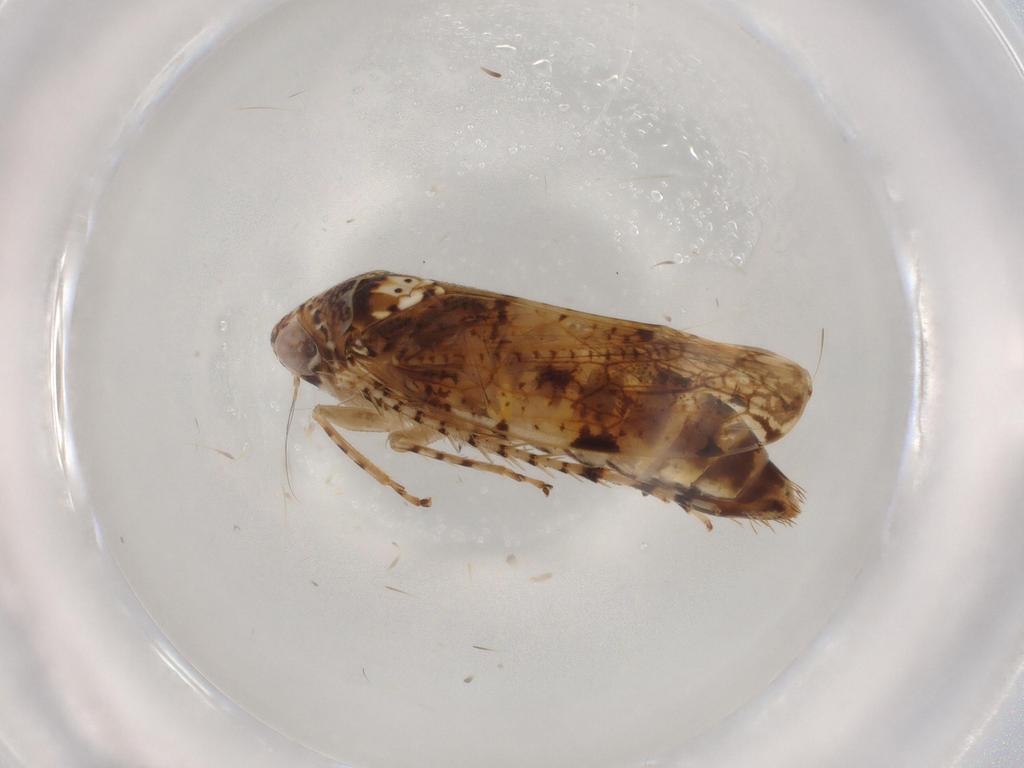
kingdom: Animalia
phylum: Arthropoda
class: Insecta
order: Hemiptera
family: Cicadellidae
